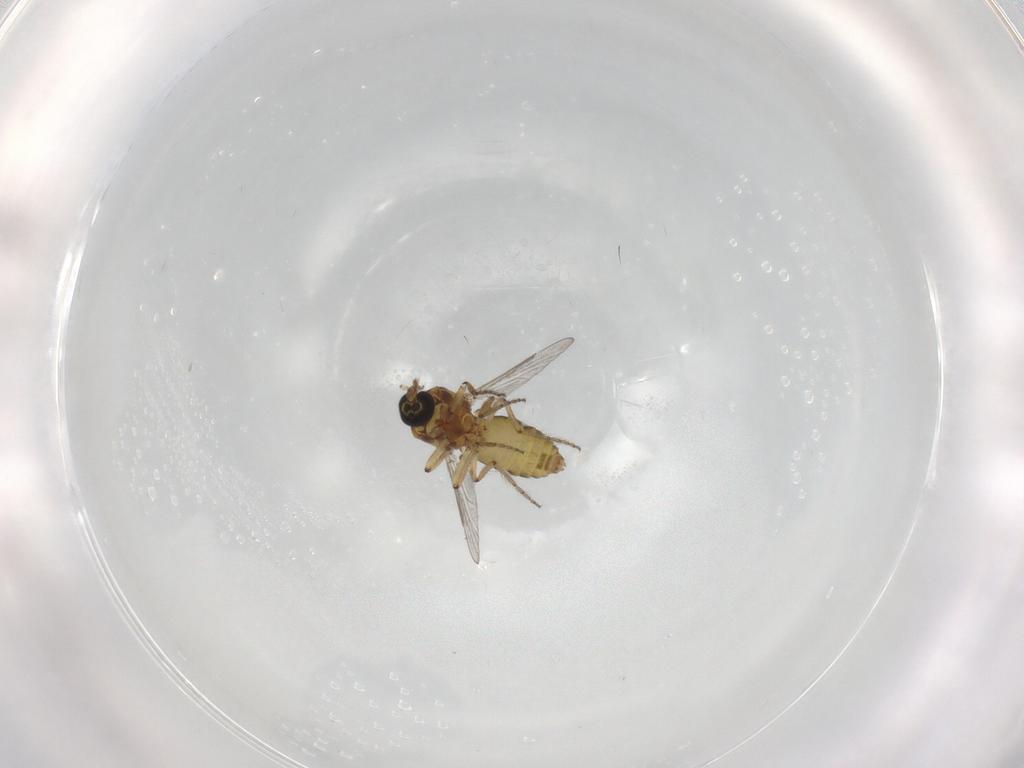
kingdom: Animalia
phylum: Arthropoda
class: Insecta
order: Diptera
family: Ceratopogonidae
